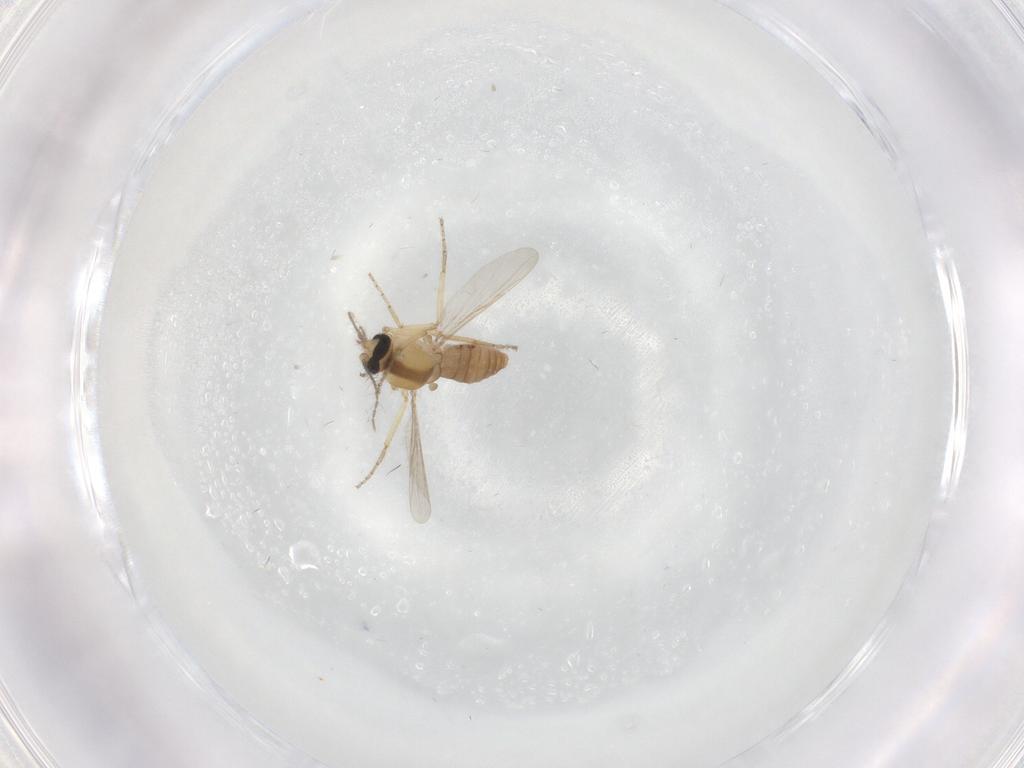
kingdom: Animalia
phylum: Arthropoda
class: Insecta
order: Diptera
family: Ceratopogonidae
